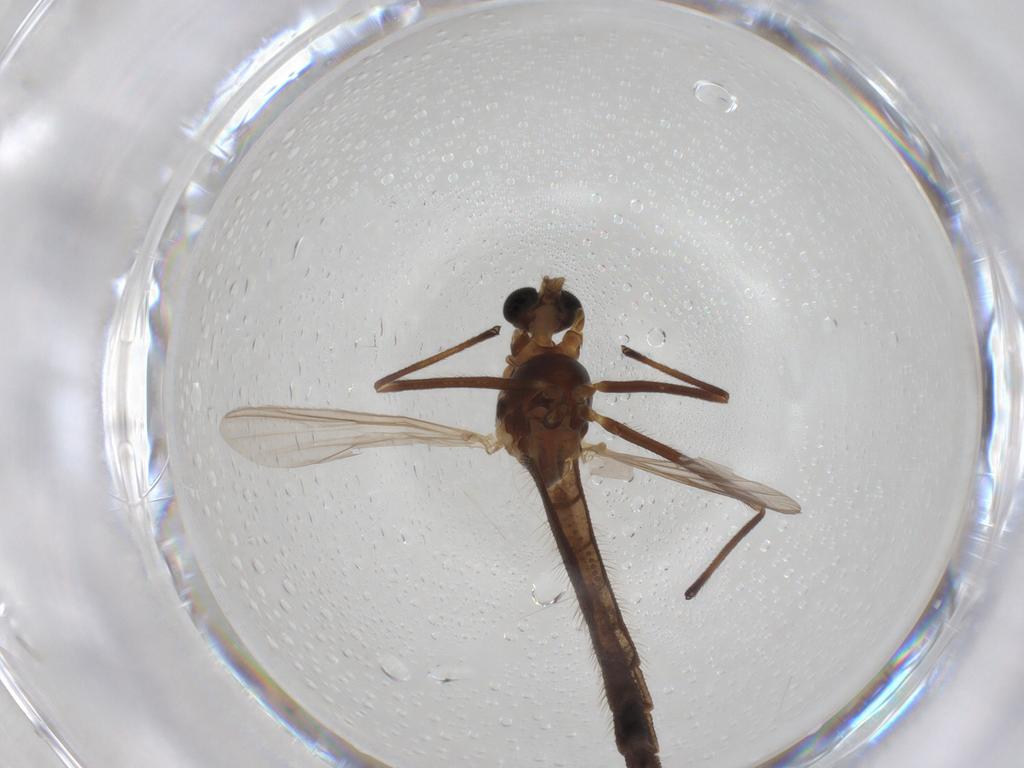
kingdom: Animalia
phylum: Arthropoda
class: Insecta
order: Diptera
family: Chironomidae
